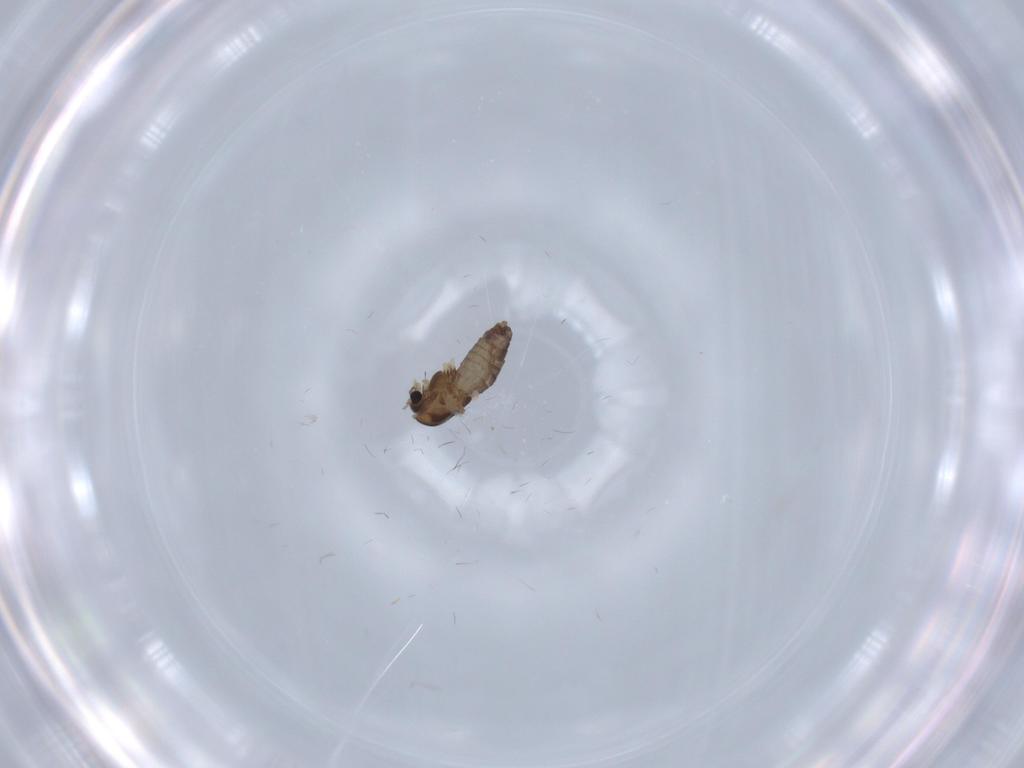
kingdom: Animalia
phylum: Arthropoda
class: Insecta
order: Diptera
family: Chironomidae
